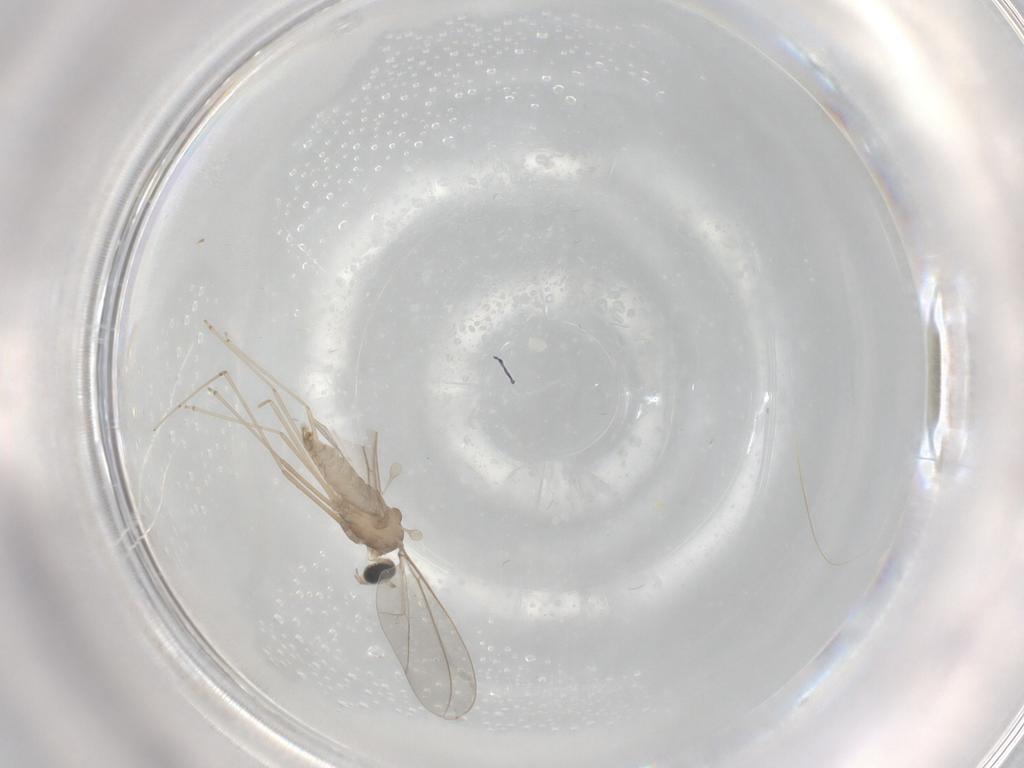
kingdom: Animalia
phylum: Arthropoda
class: Insecta
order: Diptera
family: Cecidomyiidae
